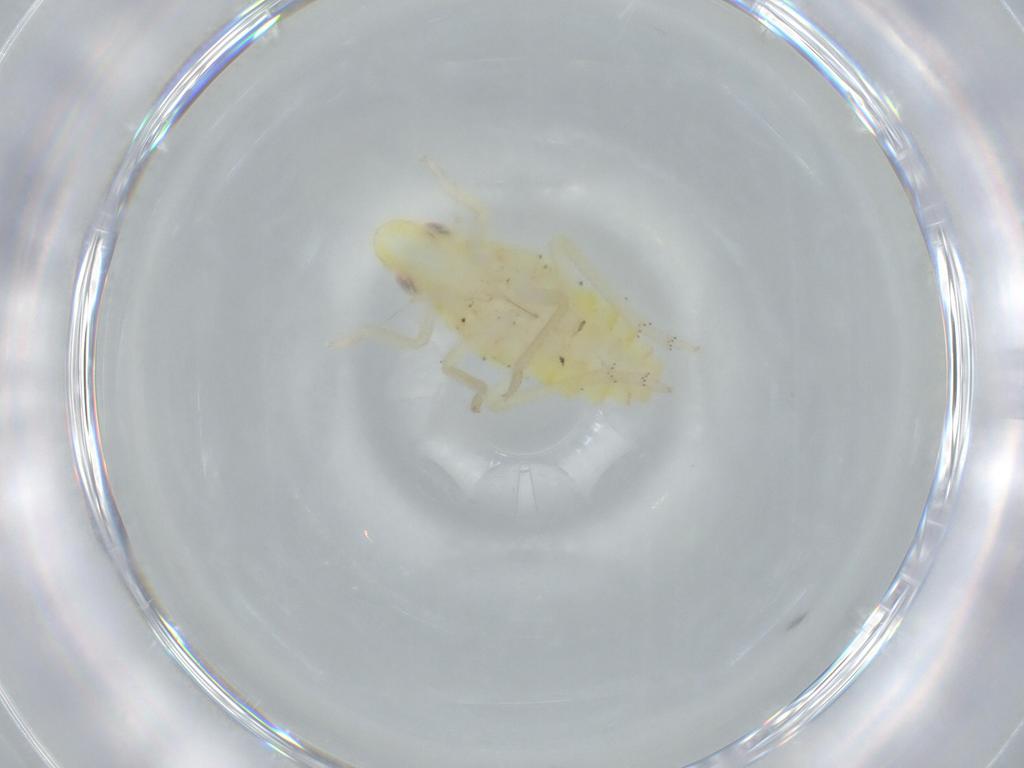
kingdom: Animalia
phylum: Arthropoda
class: Insecta
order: Hemiptera
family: Tropiduchidae
